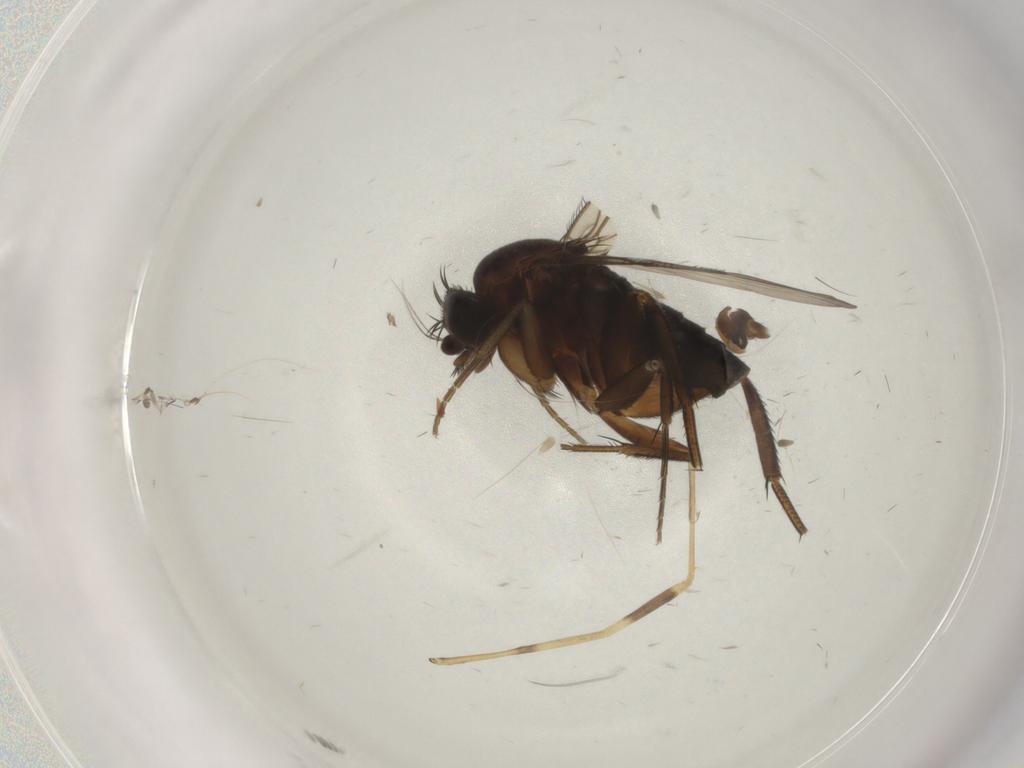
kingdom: Animalia
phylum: Arthropoda
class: Insecta
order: Diptera
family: Phoridae
